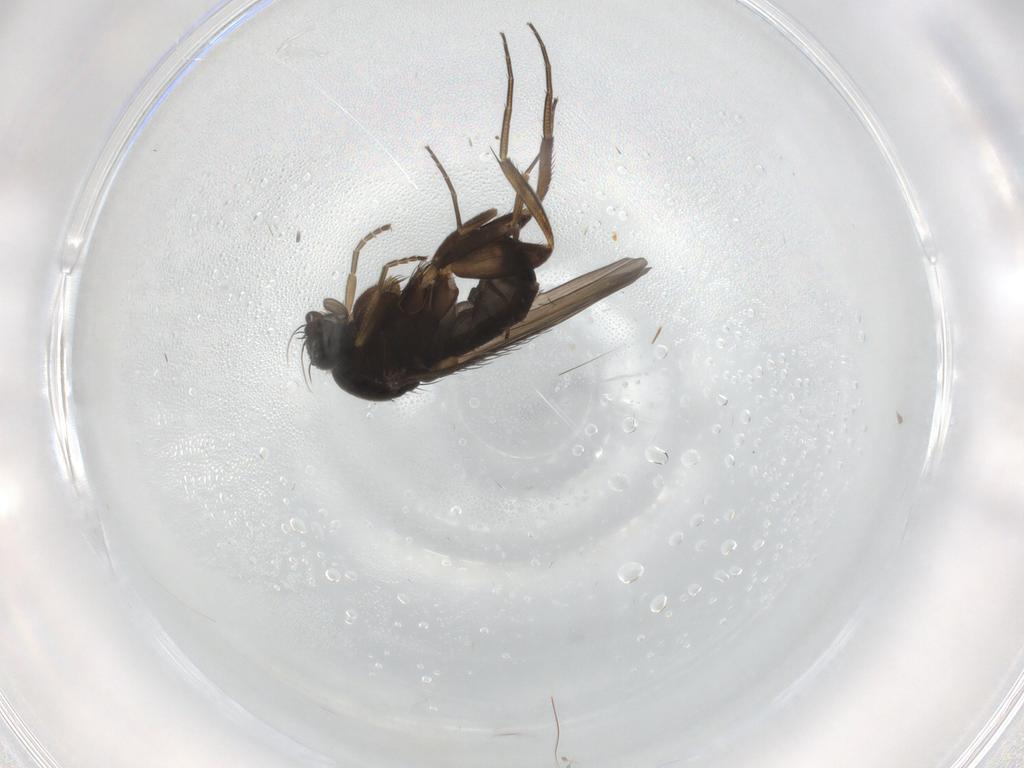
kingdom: Animalia
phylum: Arthropoda
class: Insecta
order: Diptera
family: Phoridae
